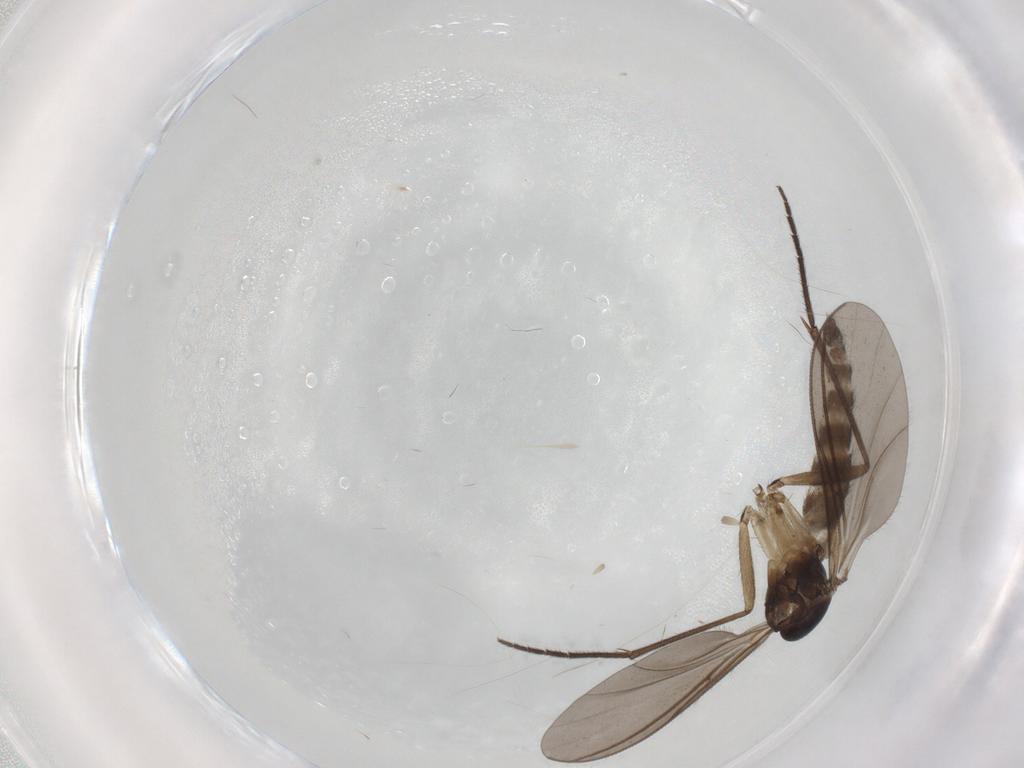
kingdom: Animalia
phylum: Arthropoda
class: Insecta
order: Diptera
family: Sciaridae
